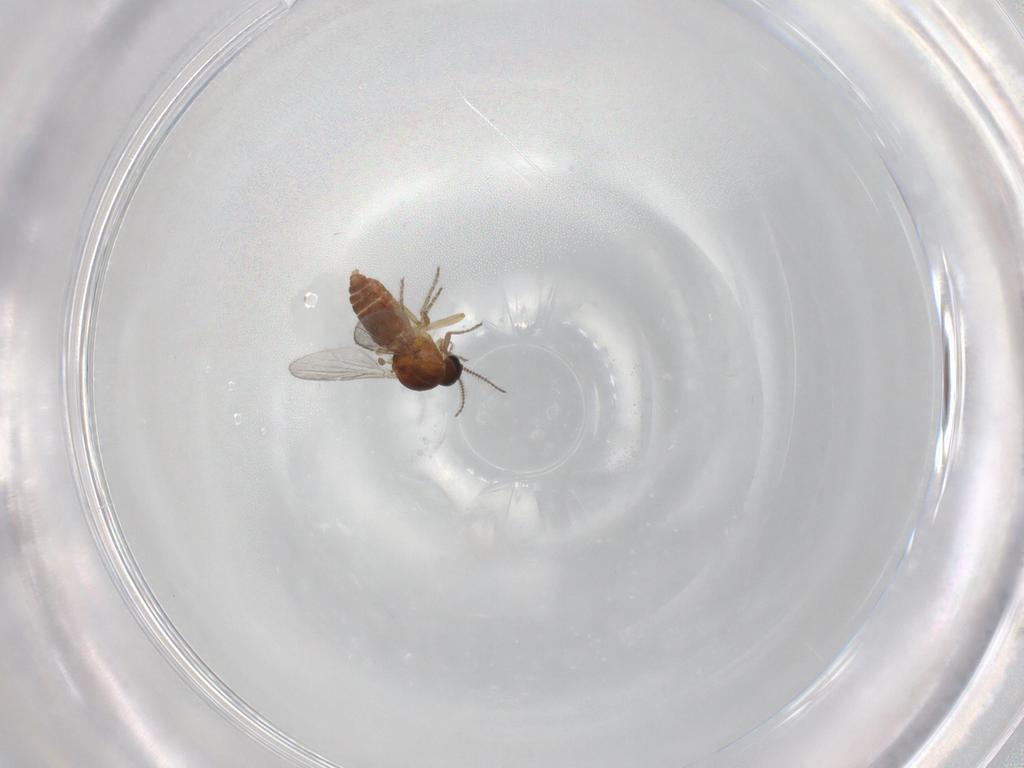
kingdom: Animalia
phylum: Arthropoda
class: Insecta
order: Diptera
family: Ceratopogonidae
